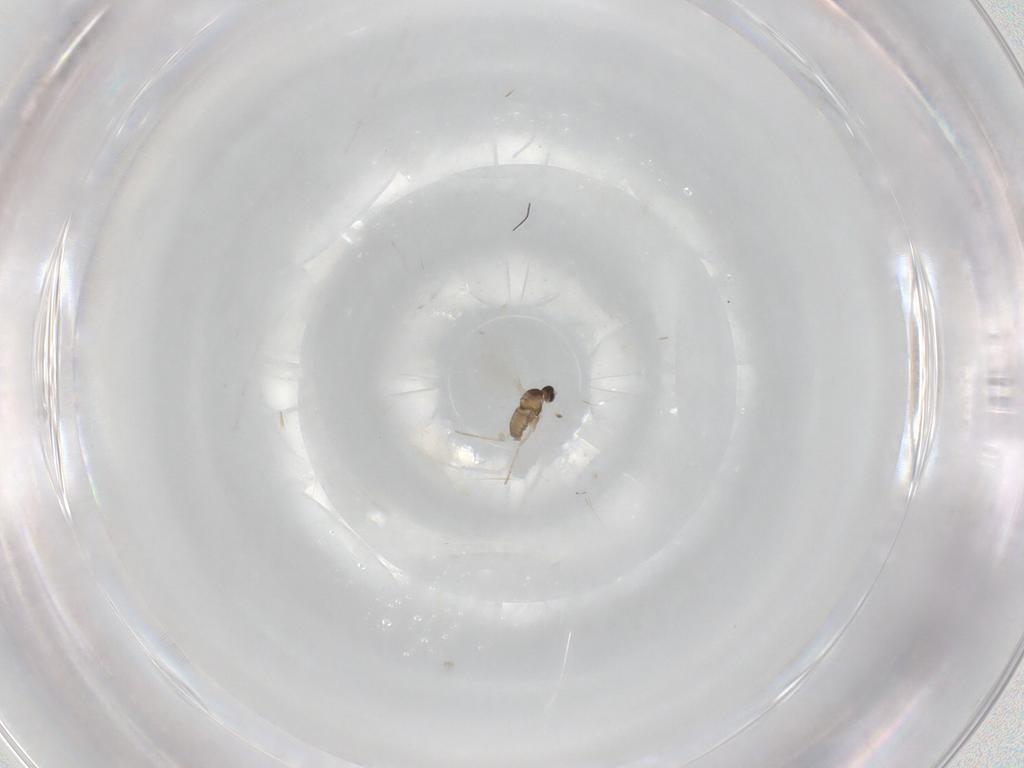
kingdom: Animalia
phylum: Arthropoda
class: Insecta
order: Diptera
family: Cecidomyiidae
